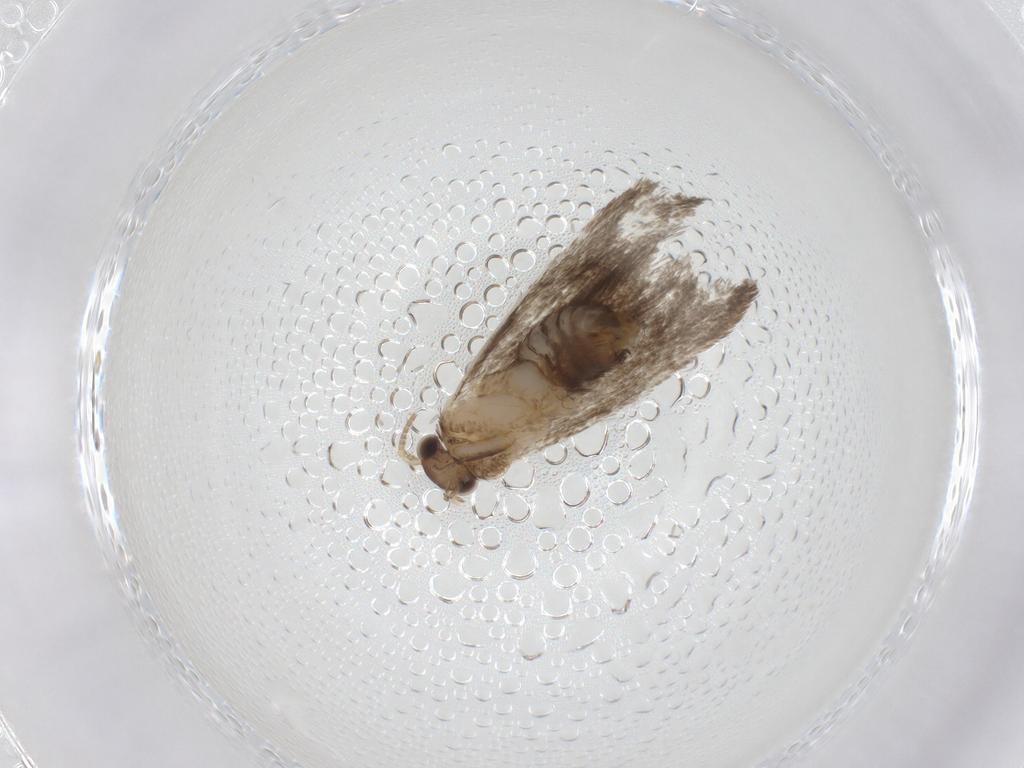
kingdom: Animalia
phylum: Arthropoda
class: Insecta
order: Lepidoptera
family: Dryadaulidae
